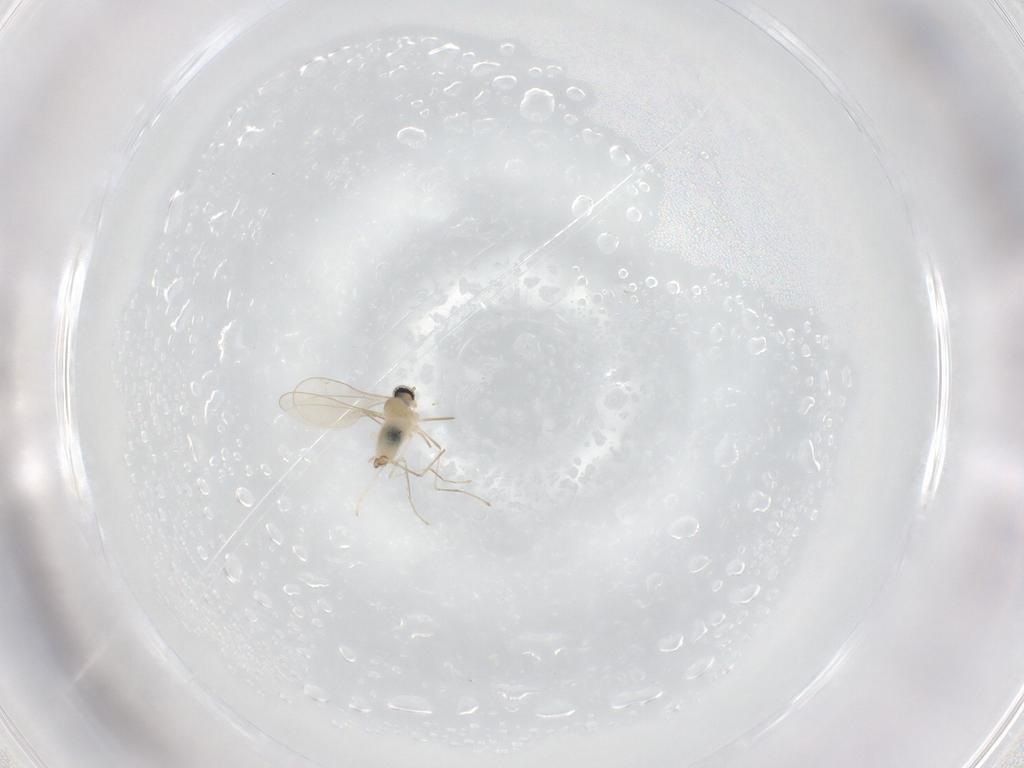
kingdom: Animalia
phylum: Arthropoda
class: Insecta
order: Diptera
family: Cecidomyiidae
